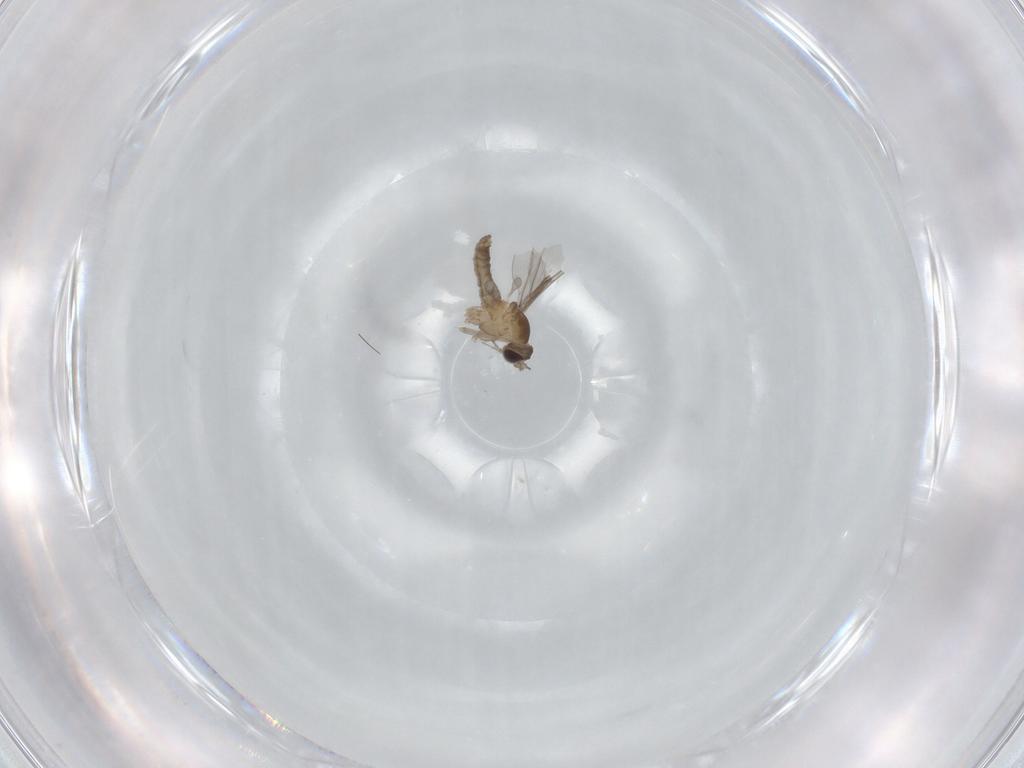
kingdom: Animalia
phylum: Arthropoda
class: Insecta
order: Diptera
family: Cecidomyiidae
